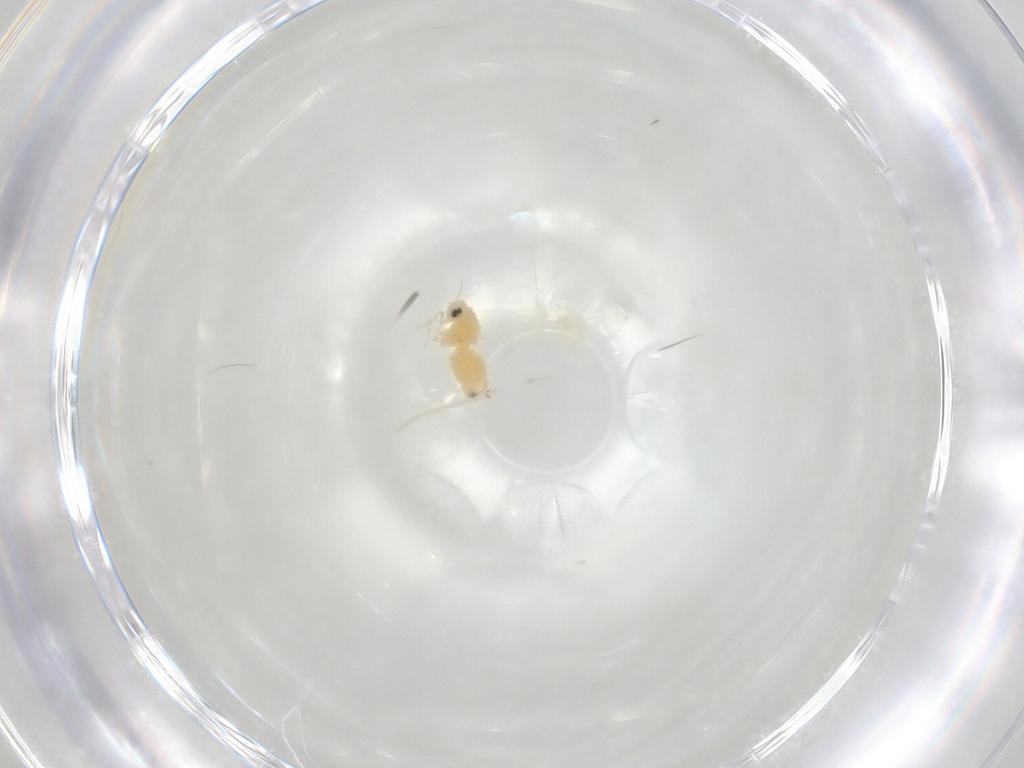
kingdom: Animalia
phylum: Arthropoda
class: Insecta
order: Hemiptera
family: Aleyrodidae
